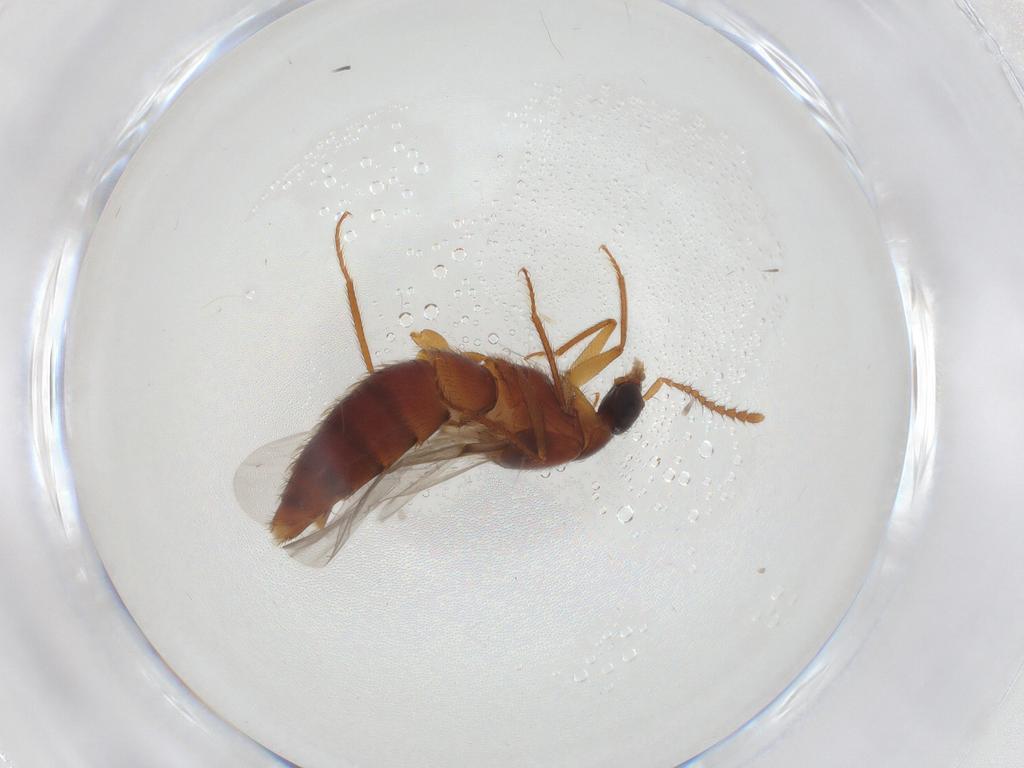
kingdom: Animalia
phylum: Arthropoda
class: Insecta
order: Coleoptera
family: Staphylinidae
